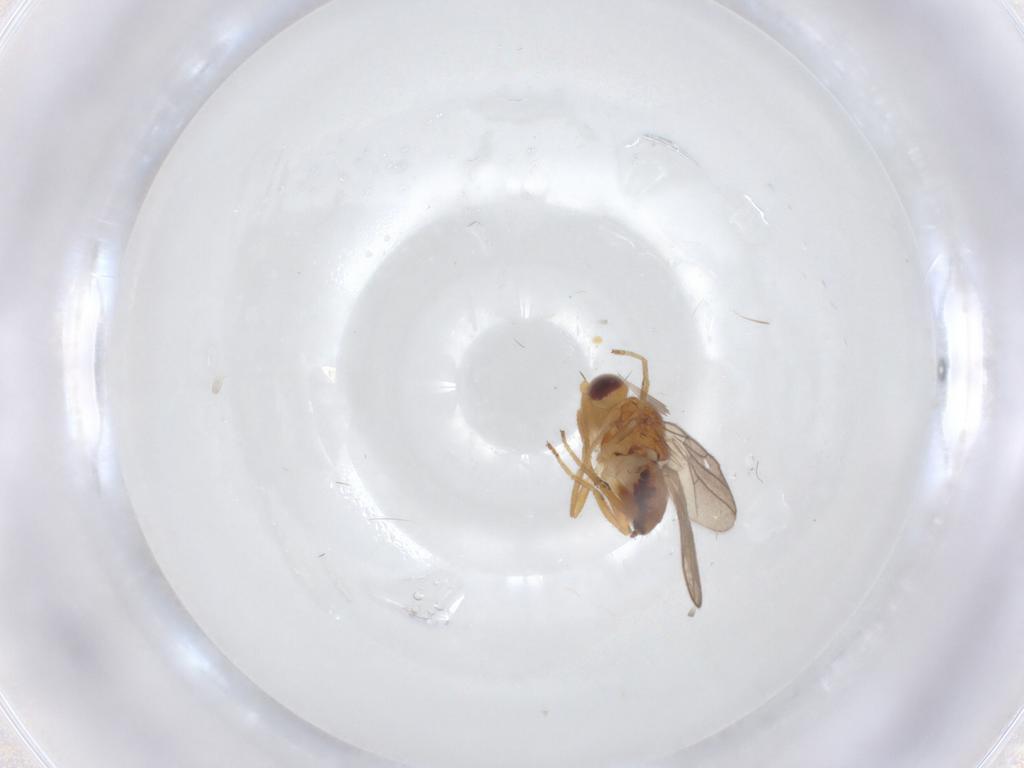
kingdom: Animalia
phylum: Arthropoda
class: Insecta
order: Diptera
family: Chloropidae
